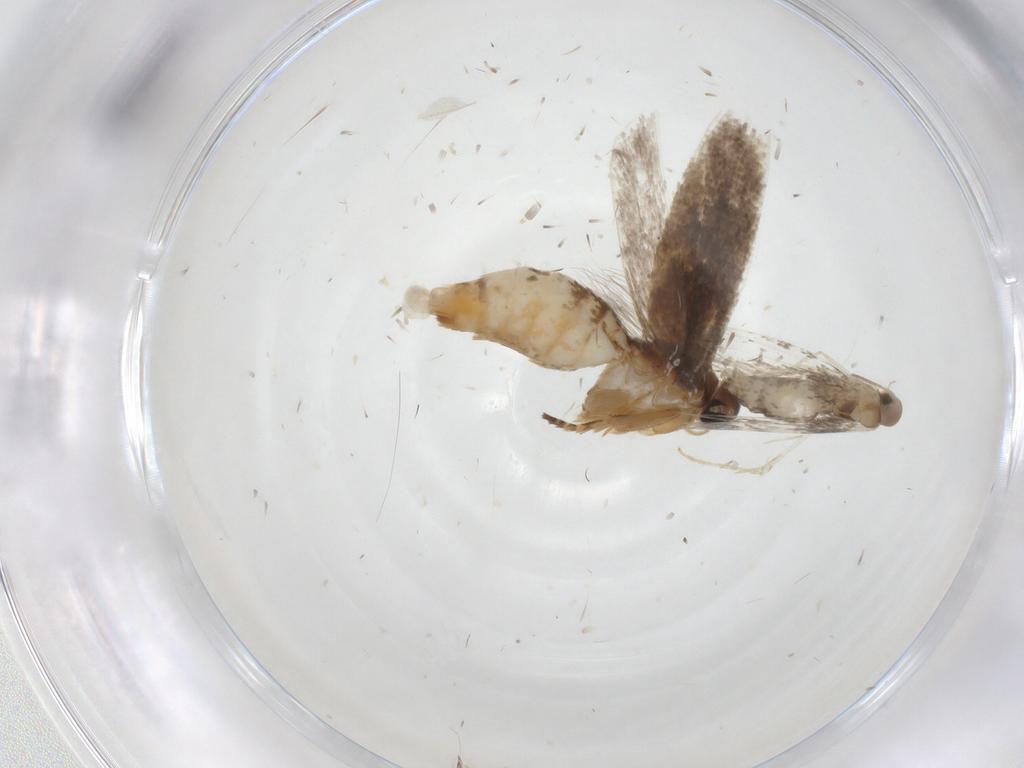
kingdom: Animalia
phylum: Arthropoda
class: Insecta
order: Lepidoptera
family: Gelechiidae
